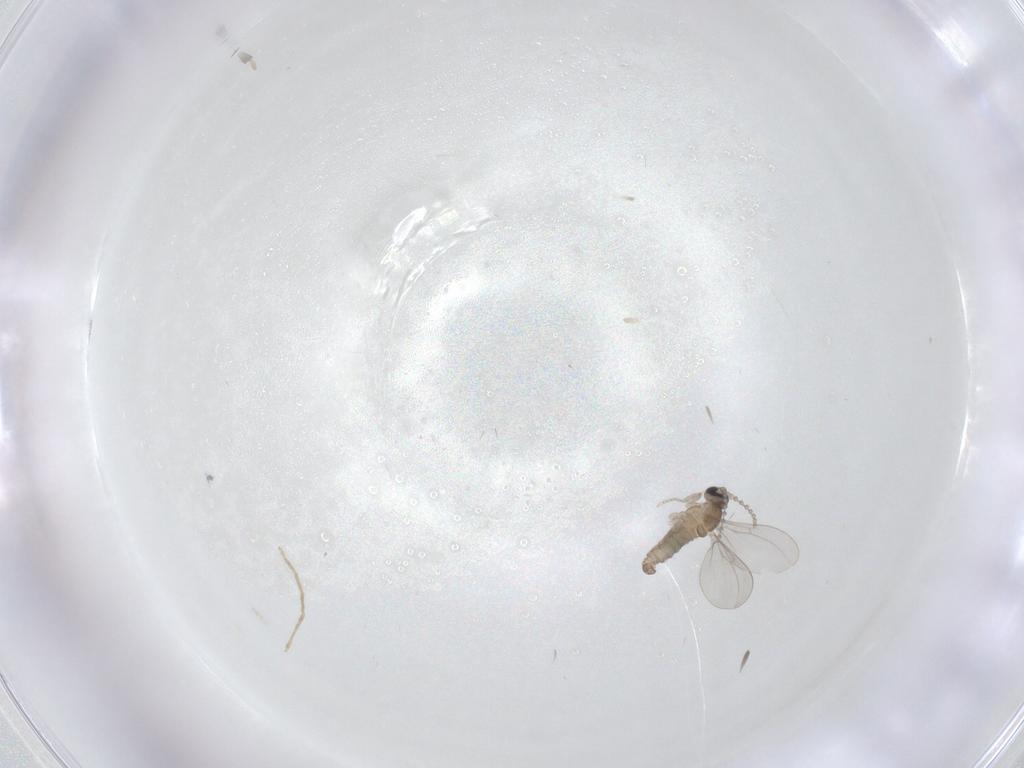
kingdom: Animalia
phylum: Arthropoda
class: Insecta
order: Diptera
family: Cecidomyiidae
